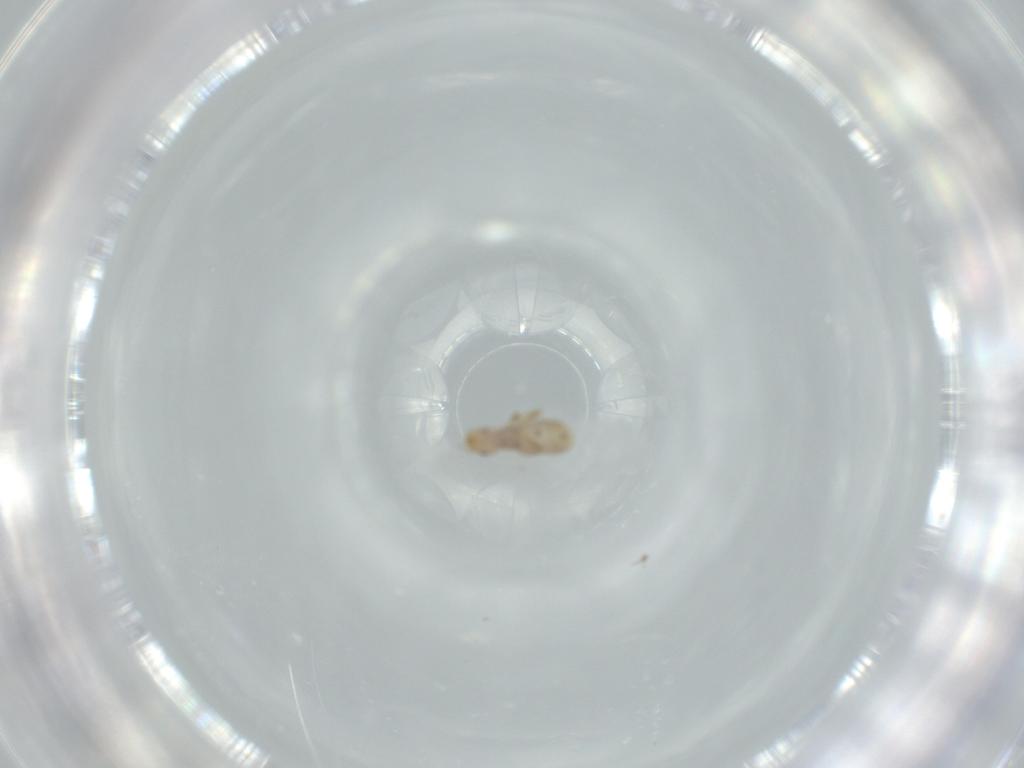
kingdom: Animalia
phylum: Arthropoda
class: Insecta
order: Psocodea
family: Liposcelididae
